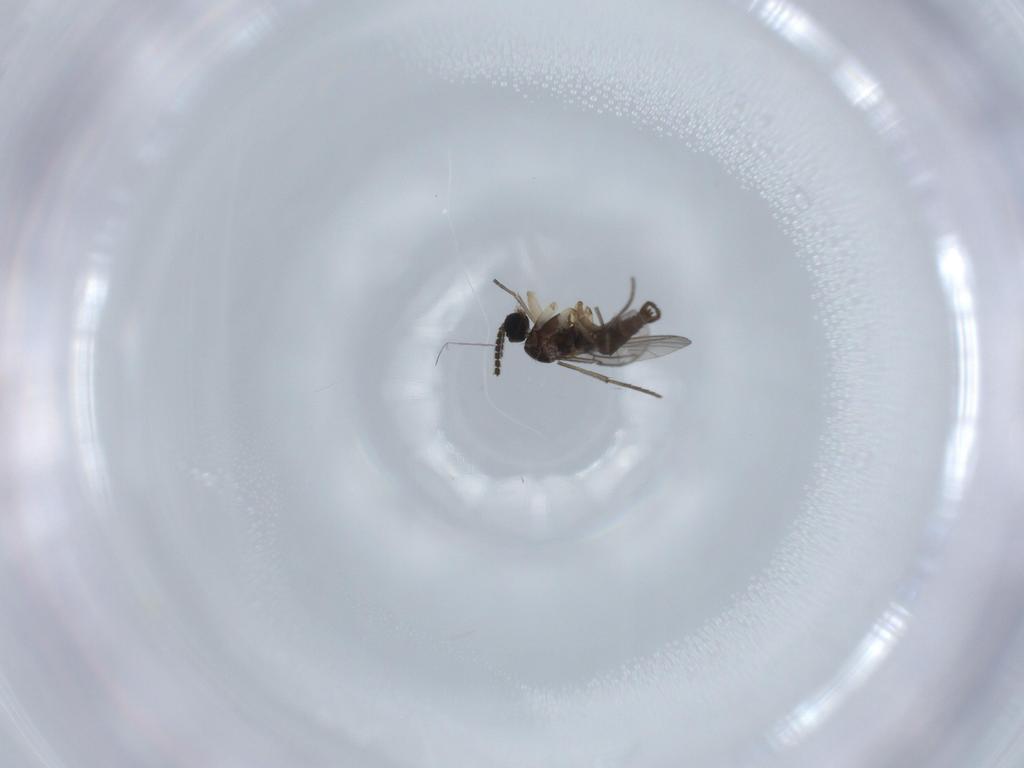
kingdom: Animalia
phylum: Arthropoda
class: Insecta
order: Diptera
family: Sciaridae
